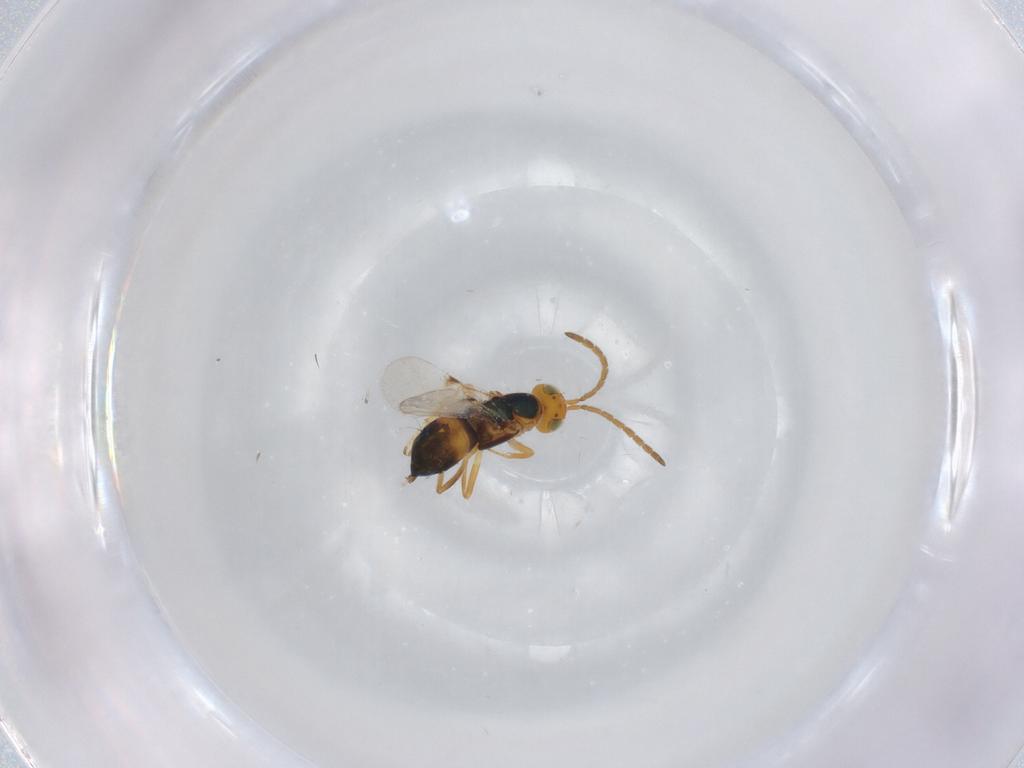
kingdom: Animalia
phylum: Arthropoda
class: Insecta
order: Hymenoptera
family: Encyrtidae
